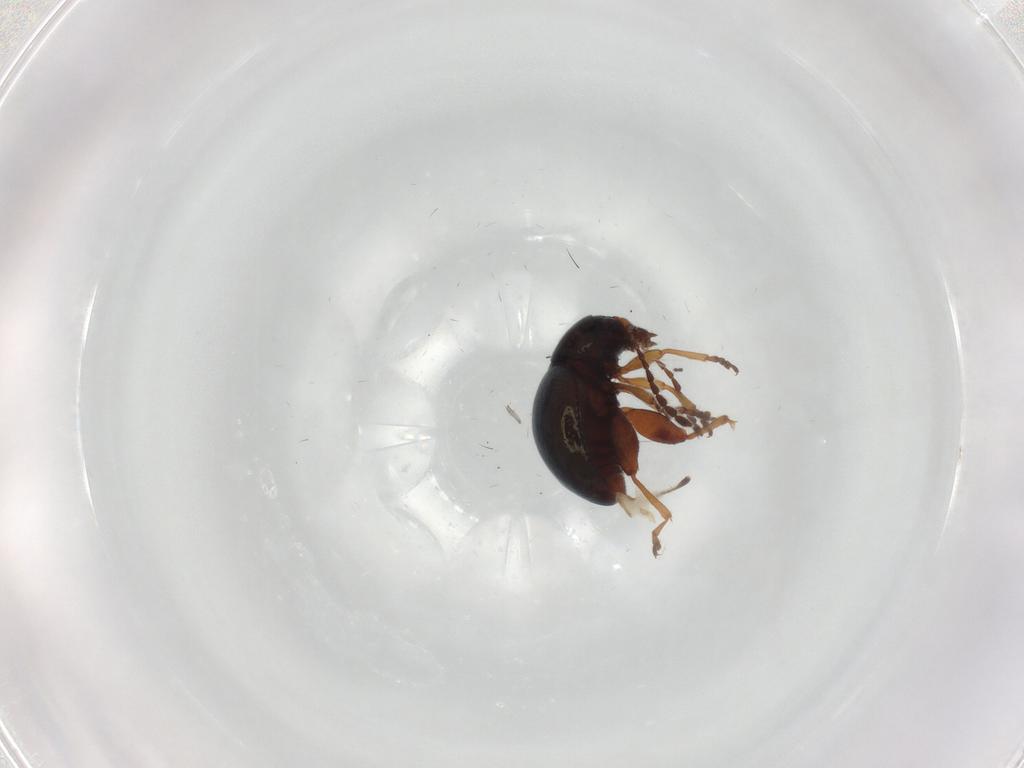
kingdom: Animalia
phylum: Arthropoda
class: Insecta
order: Coleoptera
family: Chrysomelidae
